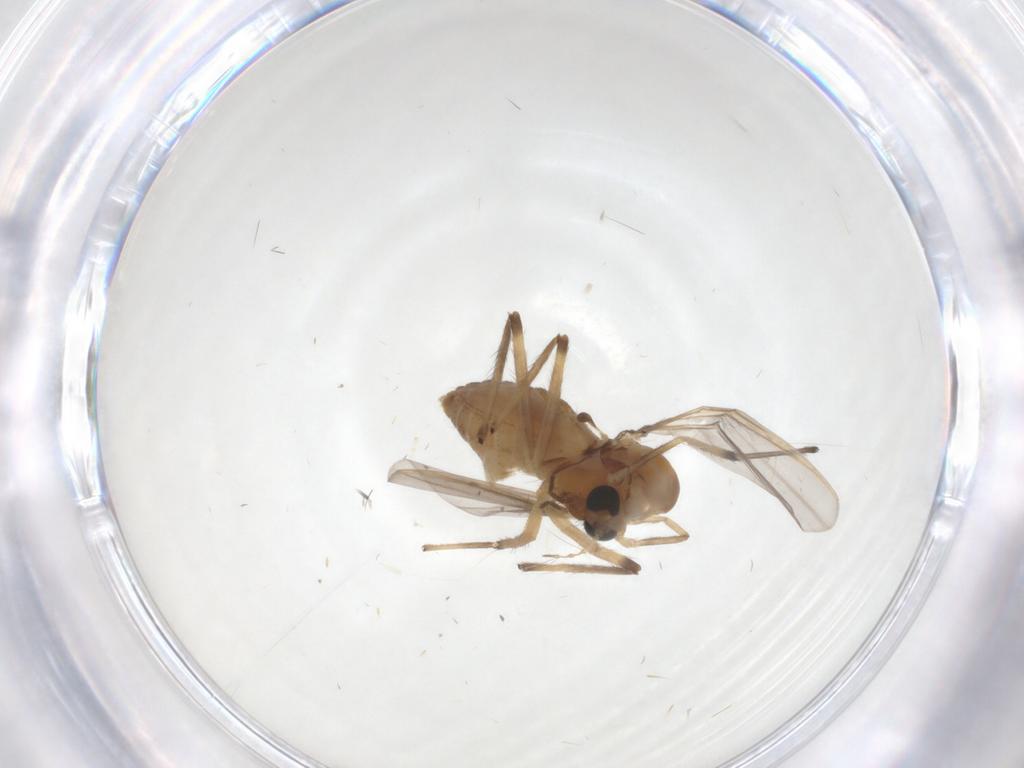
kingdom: Animalia
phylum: Arthropoda
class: Insecta
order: Diptera
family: Chironomidae
